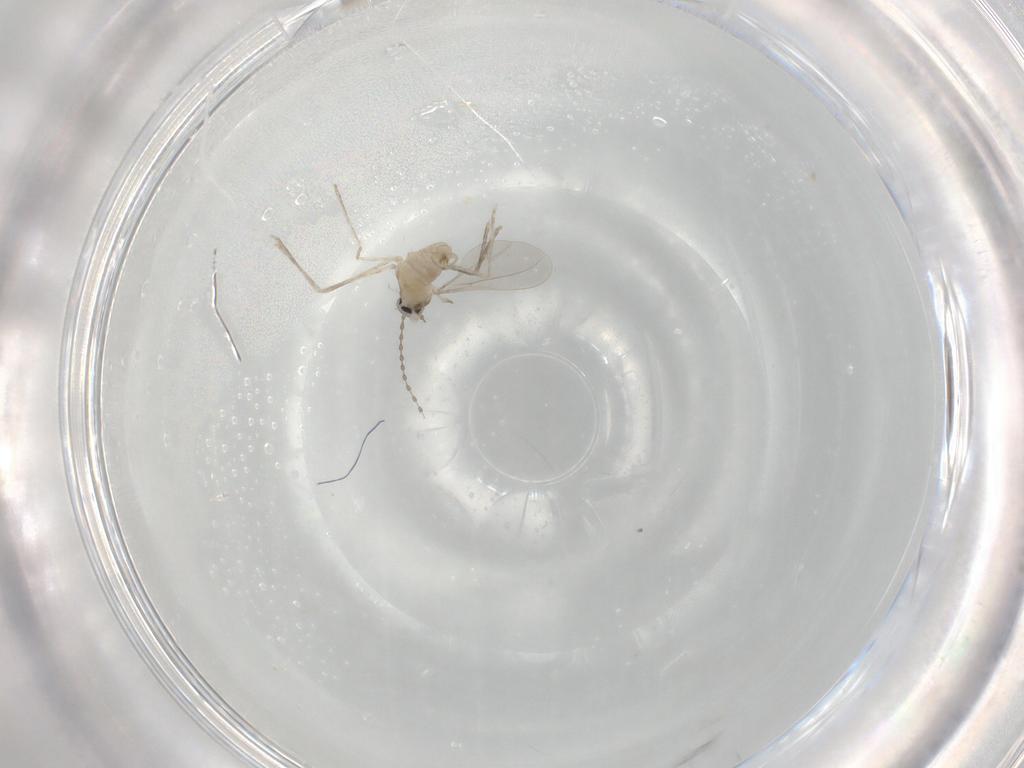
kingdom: Animalia
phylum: Arthropoda
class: Insecta
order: Diptera
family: Cecidomyiidae
